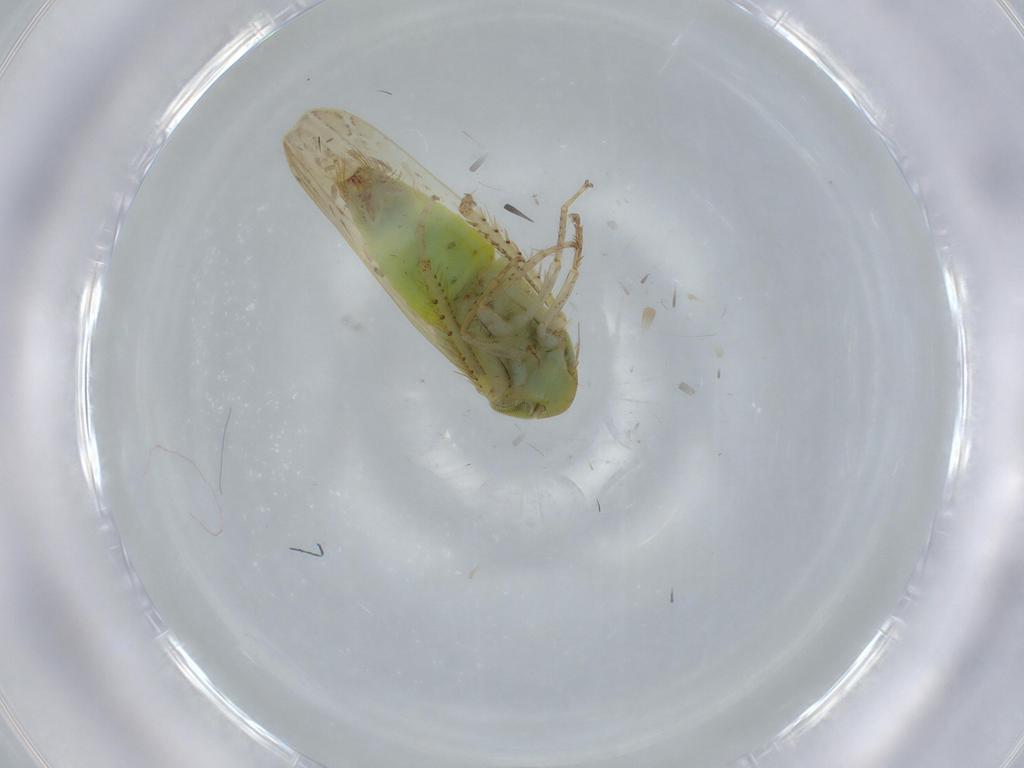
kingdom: Animalia
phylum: Arthropoda
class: Insecta
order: Hemiptera
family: Cicadellidae
